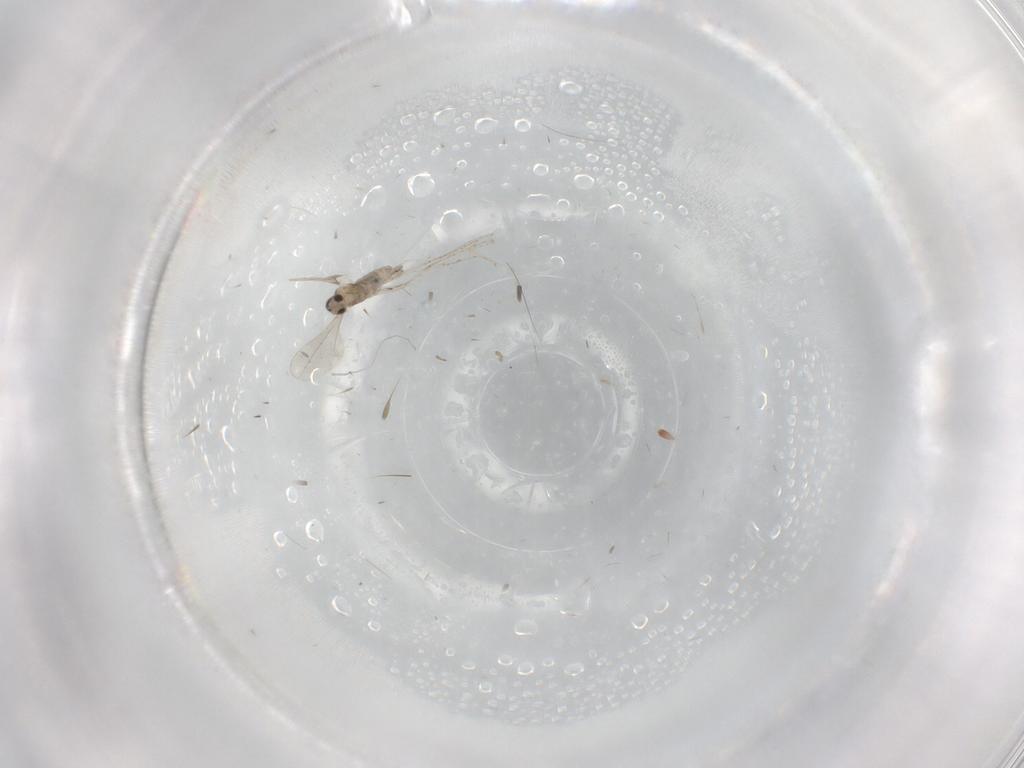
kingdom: Animalia
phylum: Arthropoda
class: Insecta
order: Diptera
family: Sphaeroceridae
